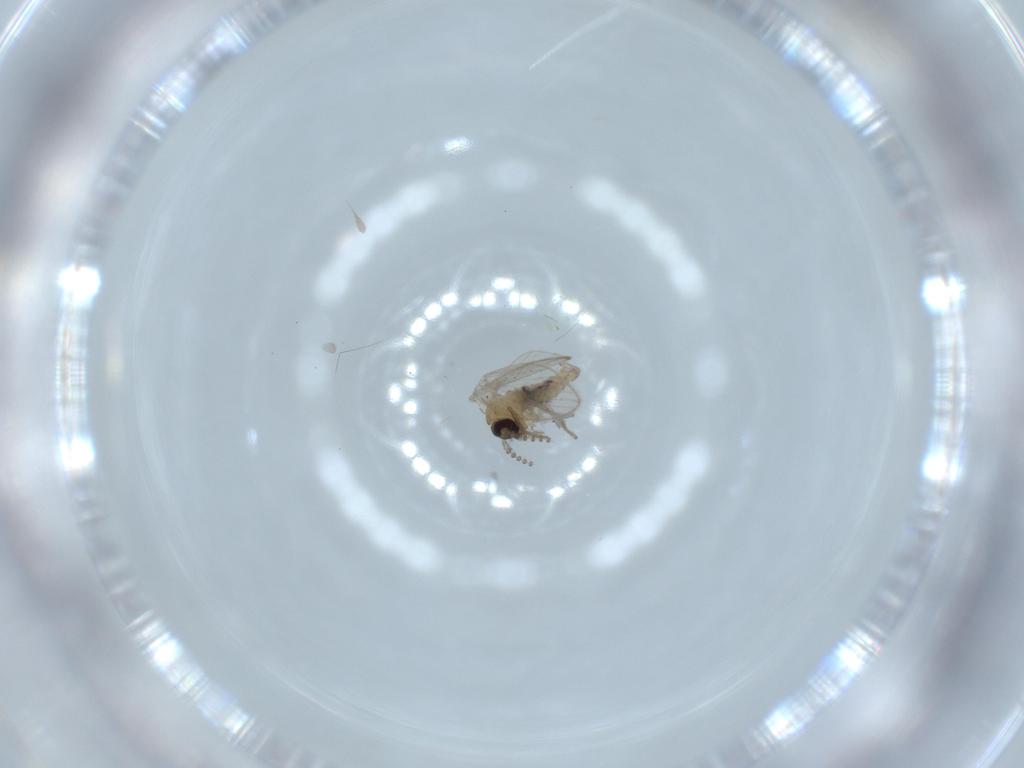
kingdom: Animalia
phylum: Arthropoda
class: Insecta
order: Diptera
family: Psychodidae
